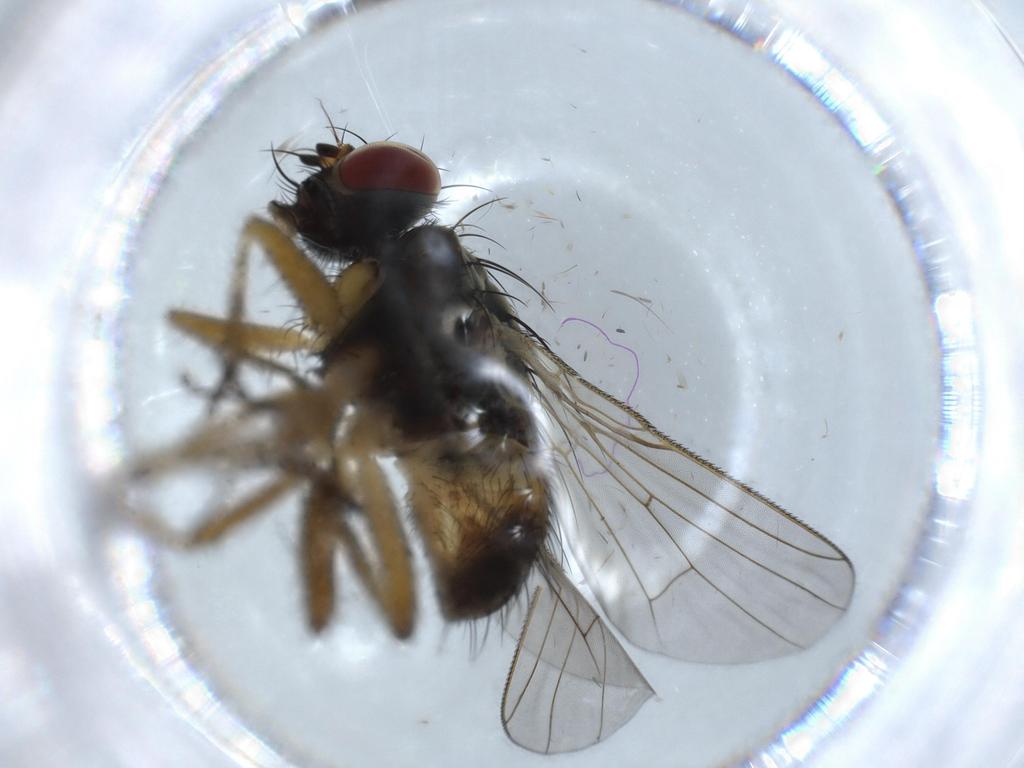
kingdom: Animalia
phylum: Arthropoda
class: Insecta
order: Diptera
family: Muscidae
